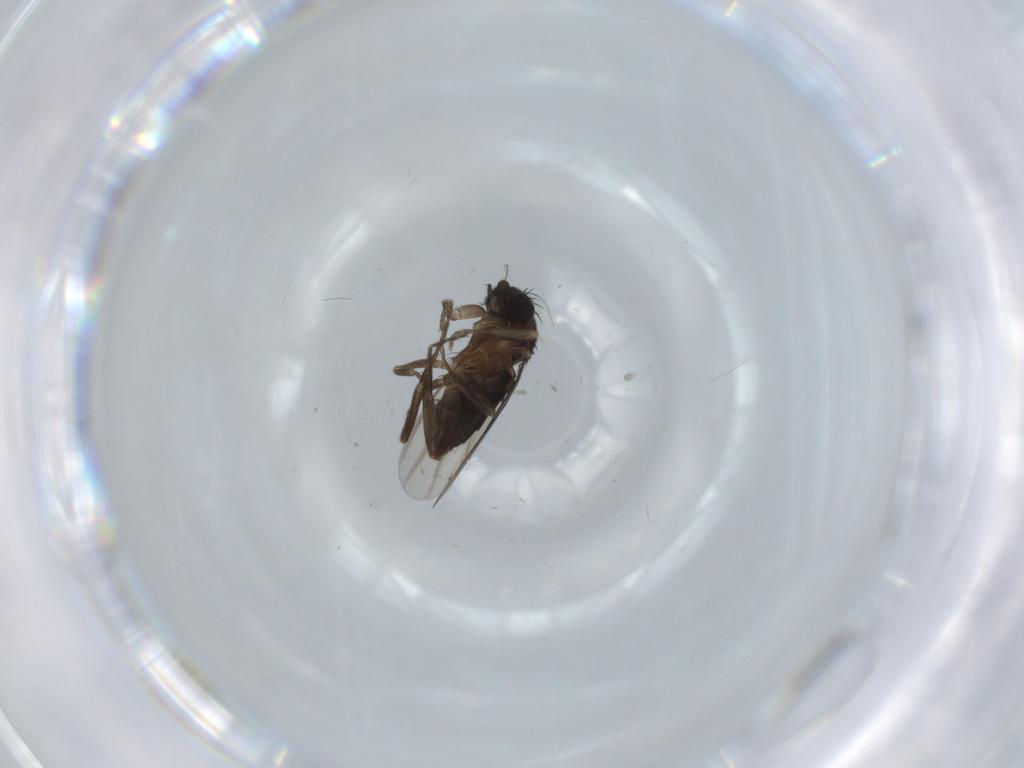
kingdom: Animalia
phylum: Arthropoda
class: Insecta
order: Diptera
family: Phoridae
